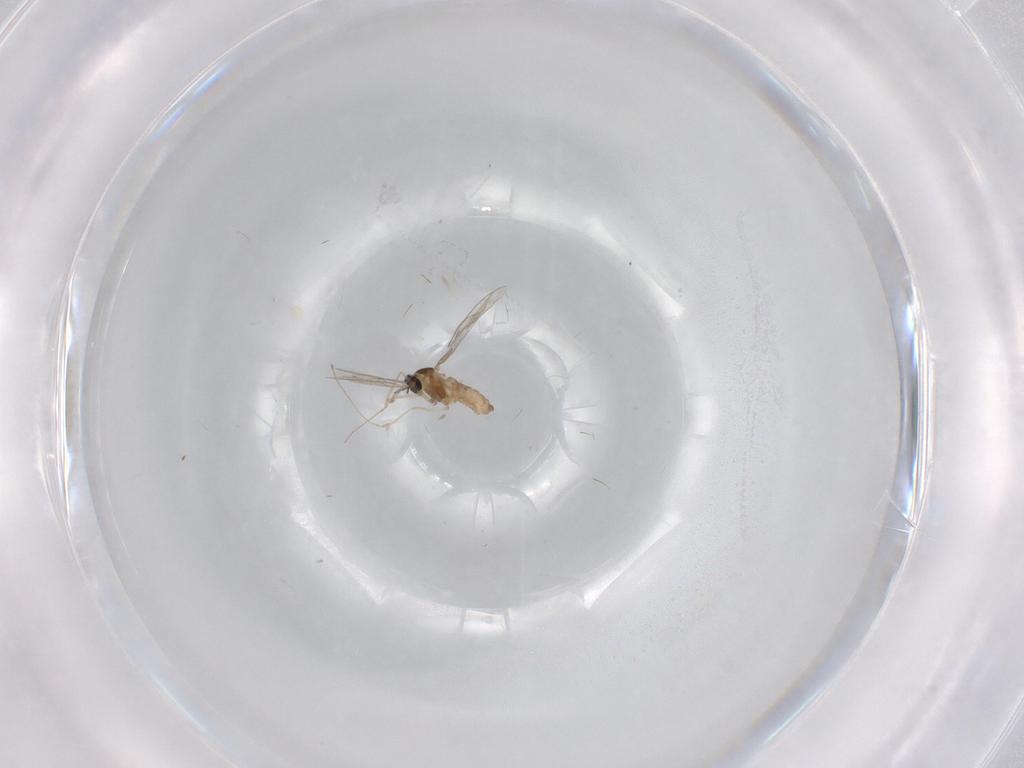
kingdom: Animalia
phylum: Arthropoda
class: Insecta
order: Diptera
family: Cecidomyiidae
